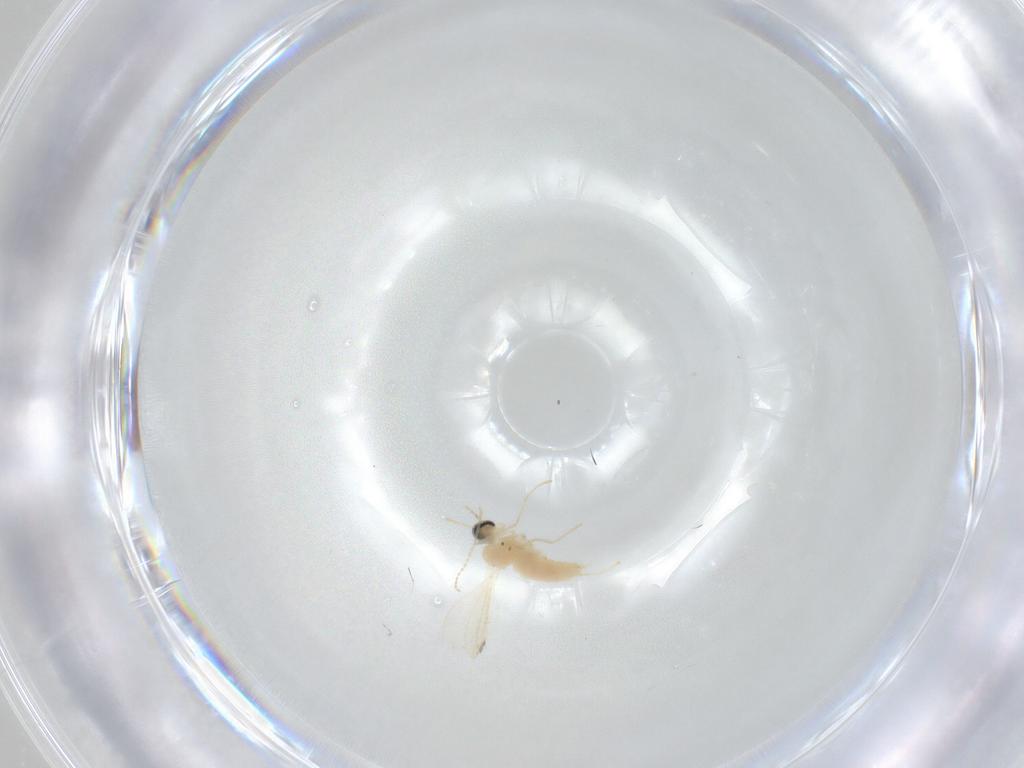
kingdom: Animalia
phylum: Arthropoda
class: Insecta
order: Diptera
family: Cecidomyiidae
